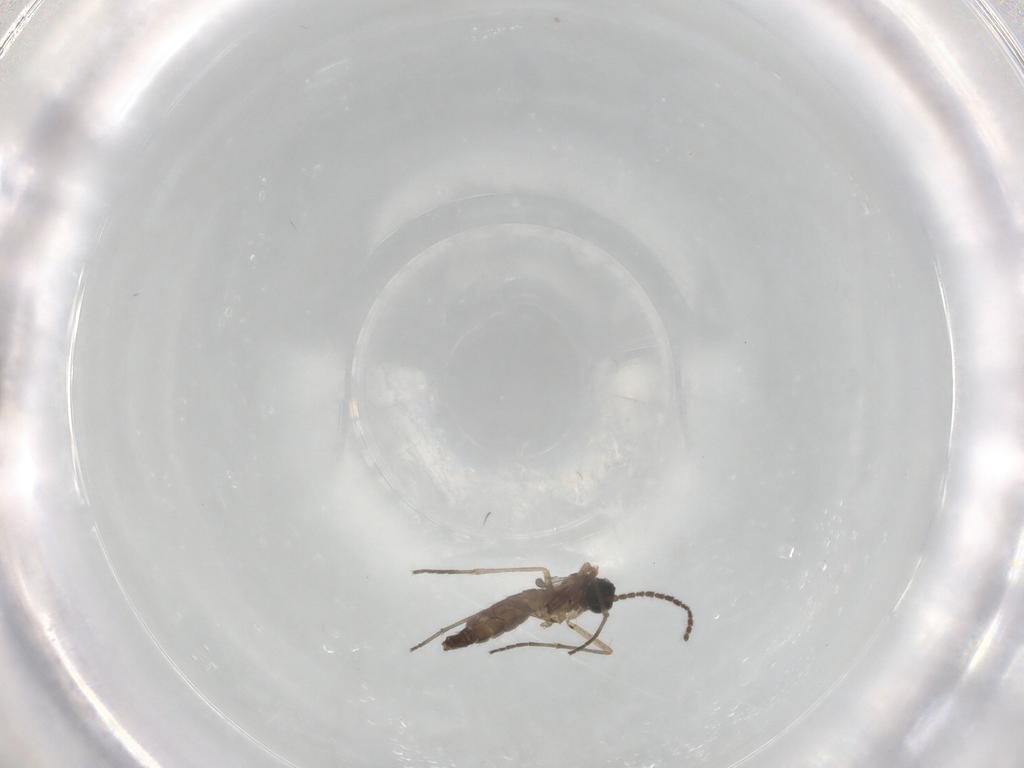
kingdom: Animalia
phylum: Arthropoda
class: Insecta
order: Diptera
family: Sciaridae
